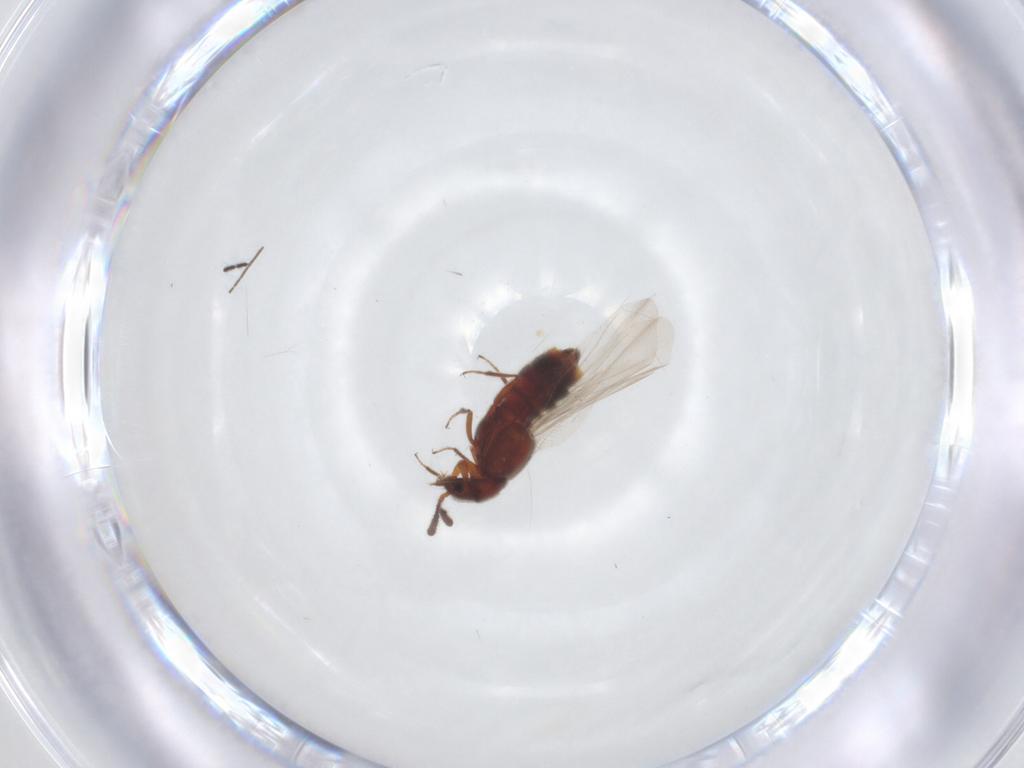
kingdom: Animalia
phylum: Arthropoda
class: Insecta
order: Coleoptera
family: Staphylinidae
